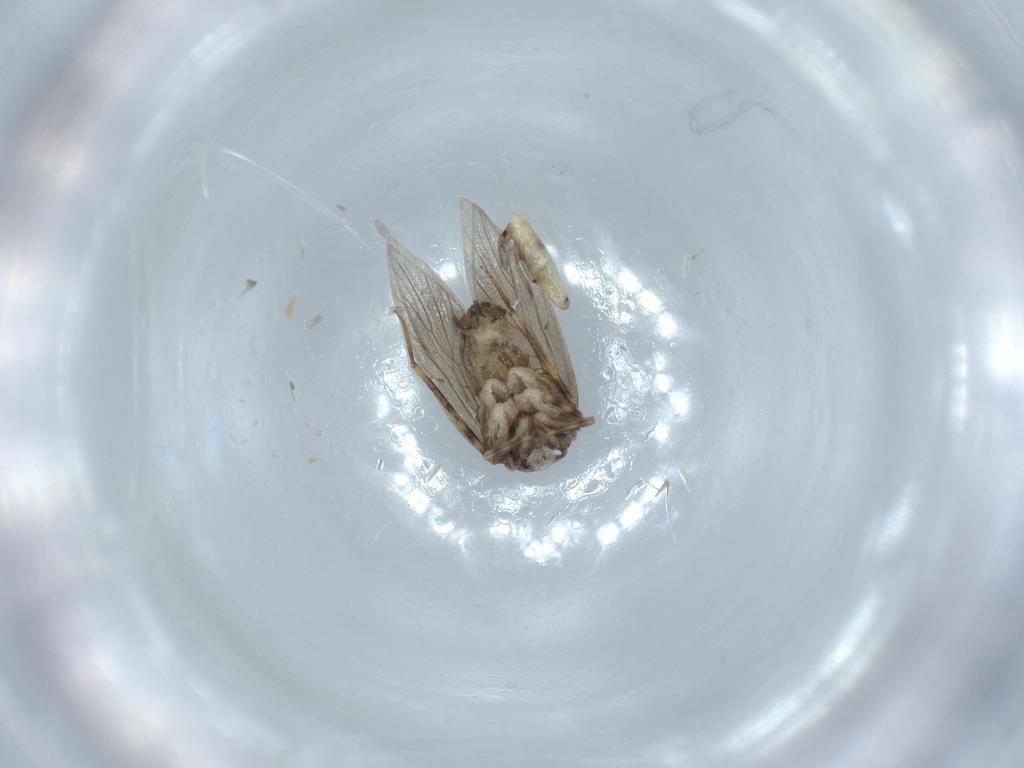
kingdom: Animalia
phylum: Arthropoda
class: Insecta
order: Psocodea
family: Lepidopsocidae
